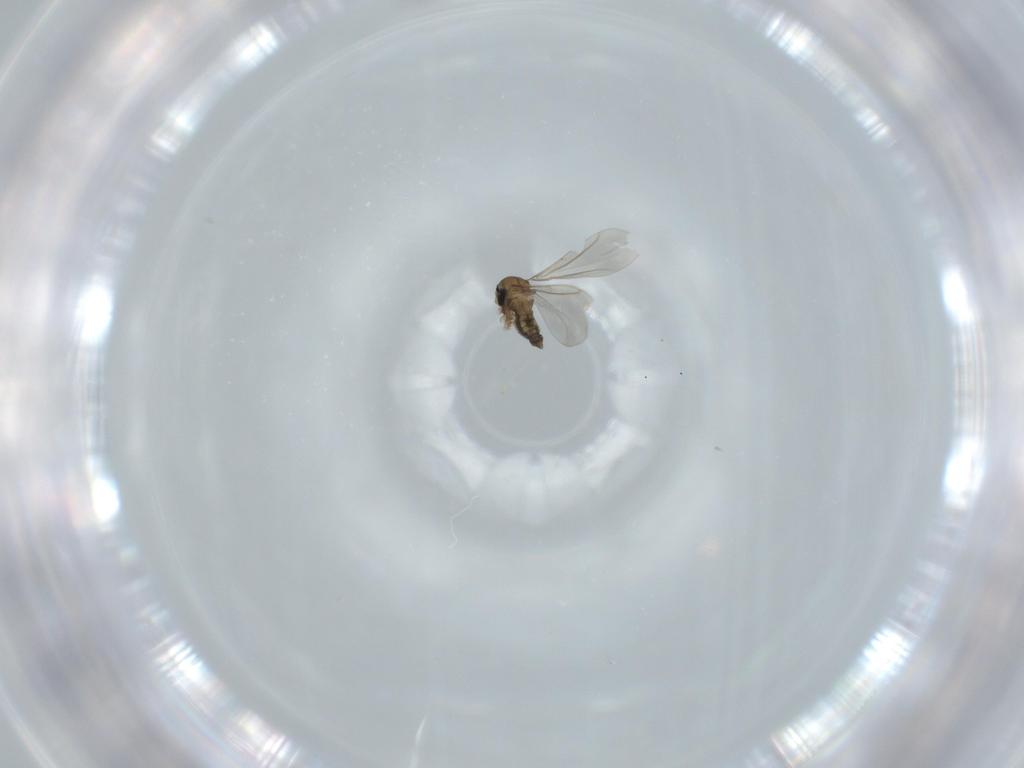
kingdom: Animalia
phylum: Arthropoda
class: Insecta
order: Diptera
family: Cecidomyiidae
